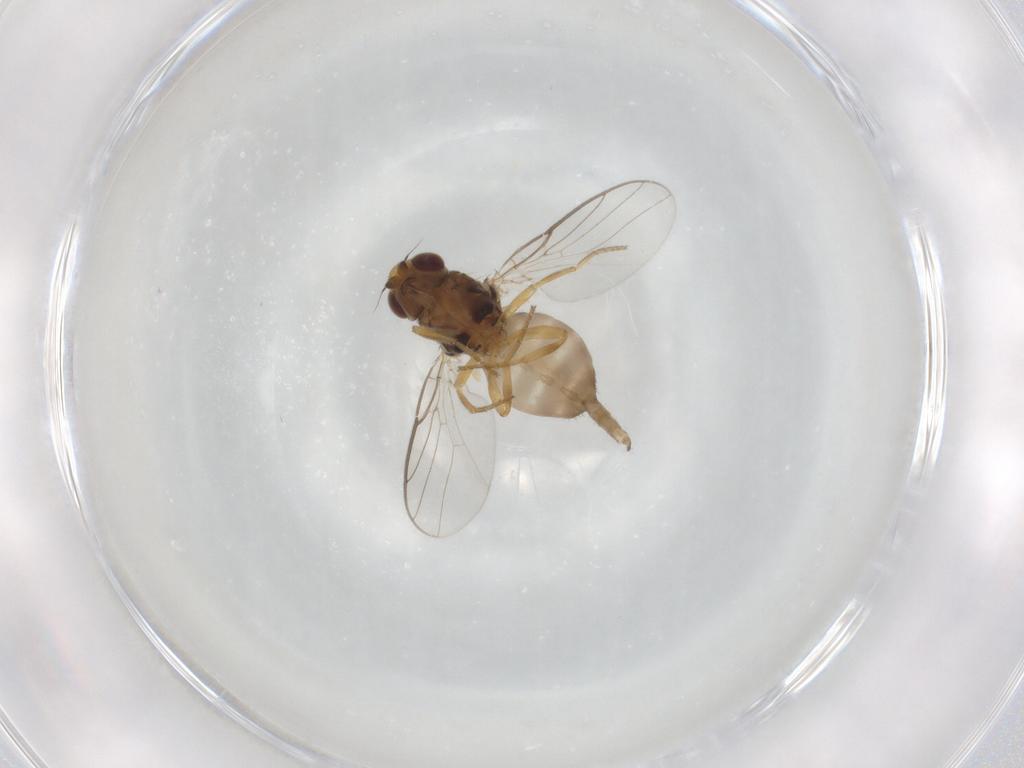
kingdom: Animalia
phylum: Arthropoda
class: Insecta
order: Diptera
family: Chloropidae
